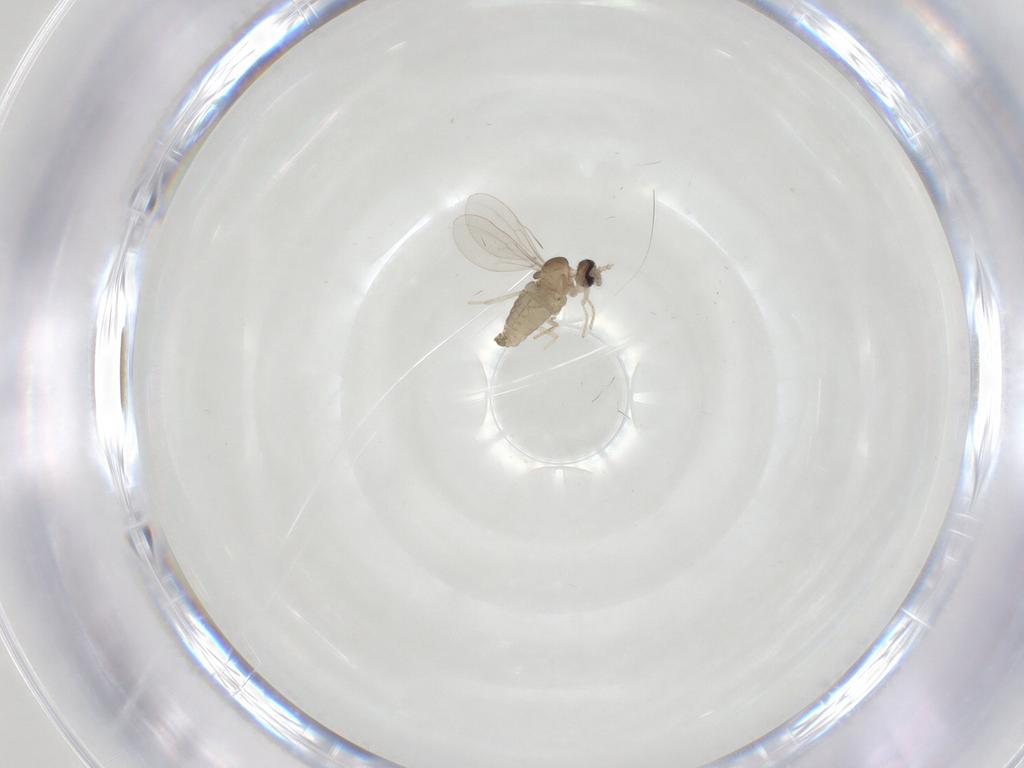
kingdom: Animalia
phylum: Arthropoda
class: Insecta
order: Diptera
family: Cecidomyiidae
